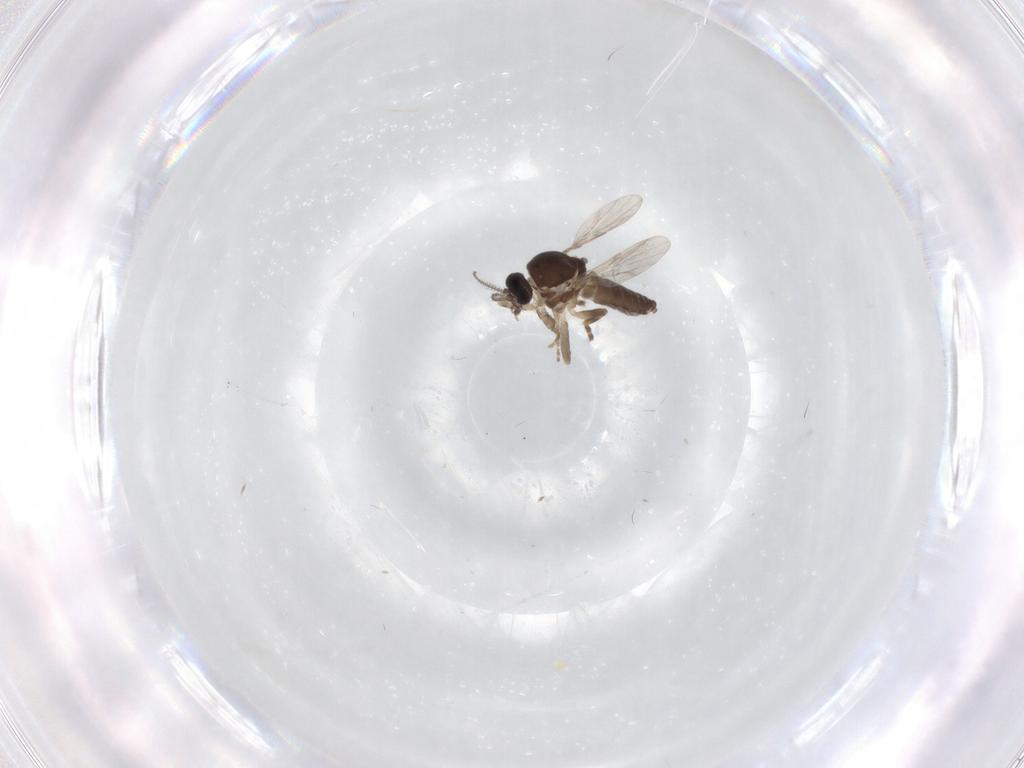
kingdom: Animalia
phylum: Arthropoda
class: Insecta
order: Diptera
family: Ceratopogonidae
